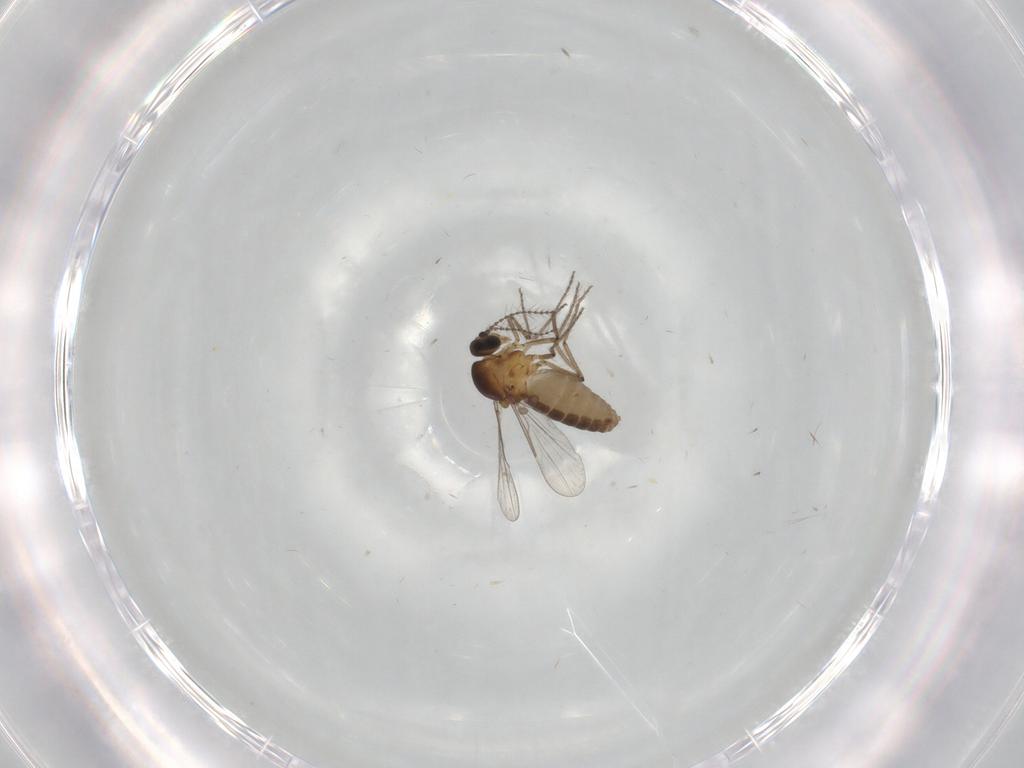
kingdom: Animalia
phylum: Arthropoda
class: Insecta
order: Diptera
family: Ceratopogonidae
